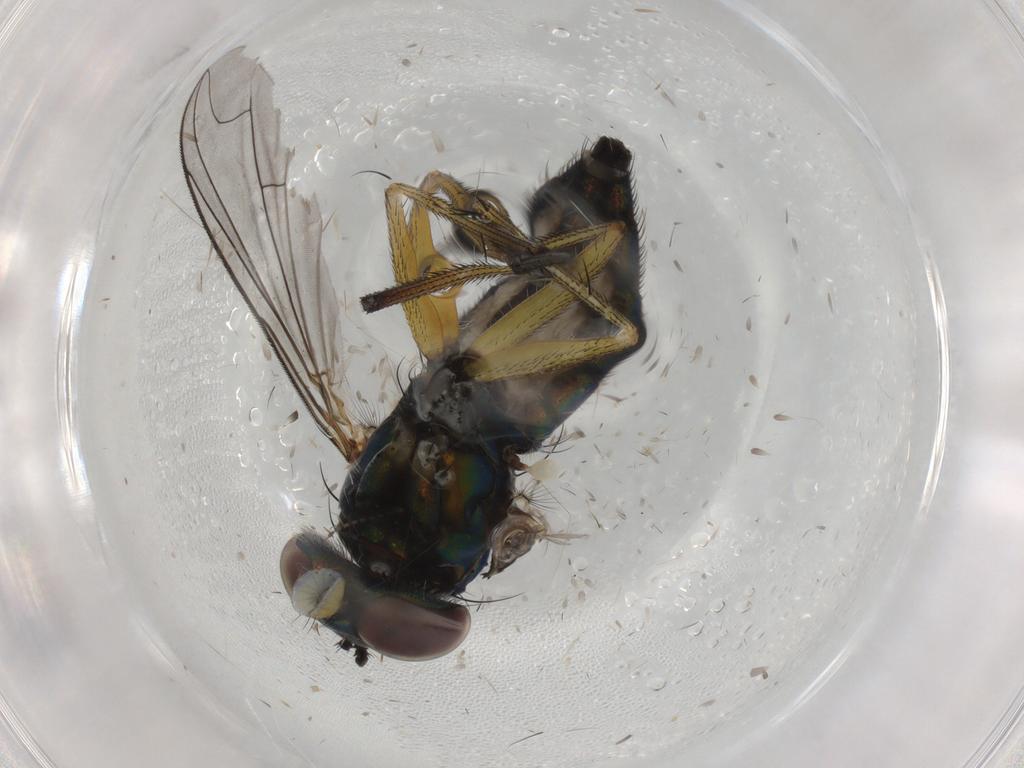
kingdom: Animalia
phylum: Arthropoda
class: Insecta
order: Diptera
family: Dolichopodidae
